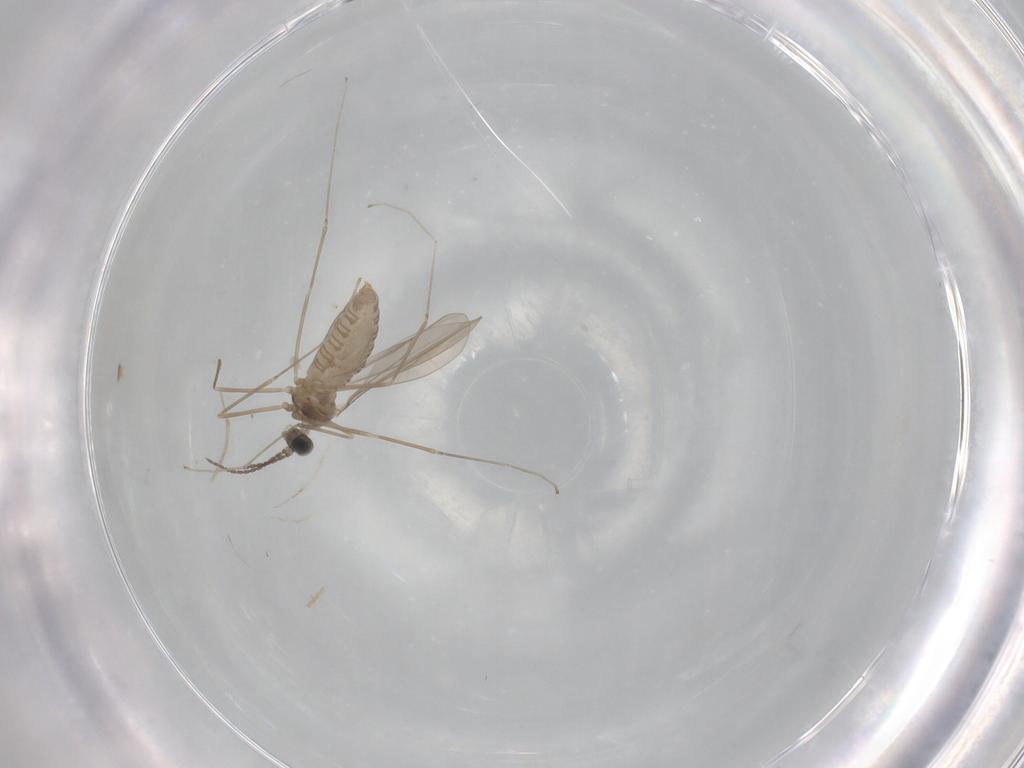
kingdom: Animalia
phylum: Arthropoda
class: Insecta
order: Diptera
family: Cecidomyiidae
